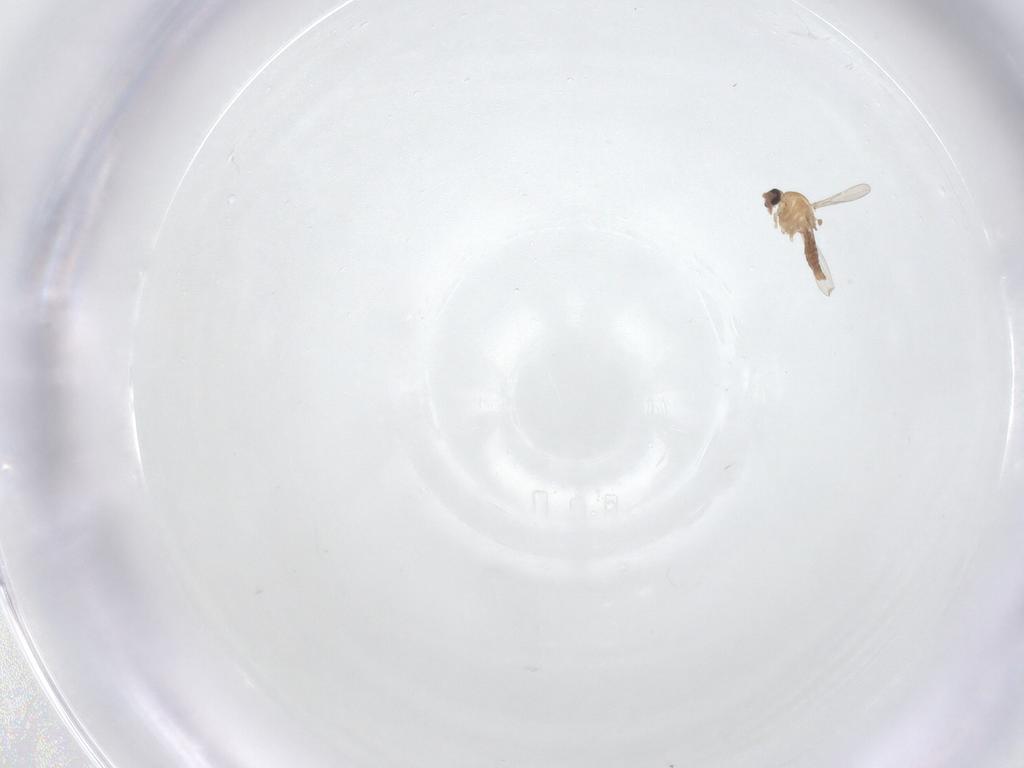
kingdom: Animalia
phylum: Arthropoda
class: Insecta
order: Diptera
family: Ceratopogonidae
